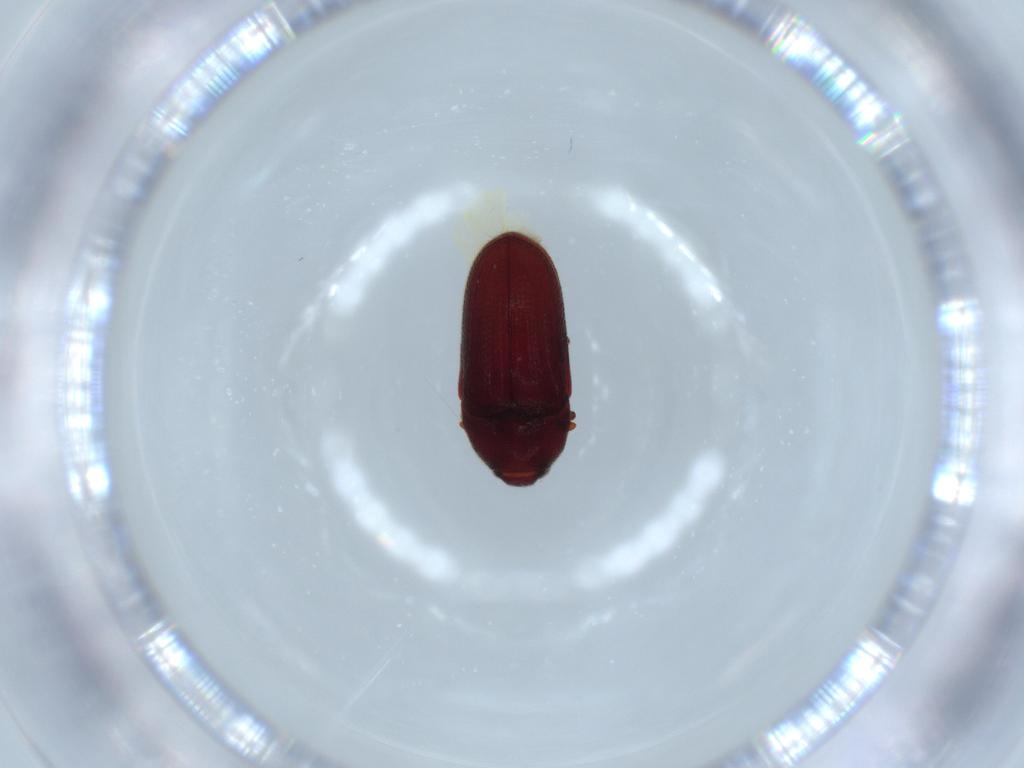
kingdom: Animalia
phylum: Arthropoda
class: Insecta
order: Coleoptera
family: Throscidae
